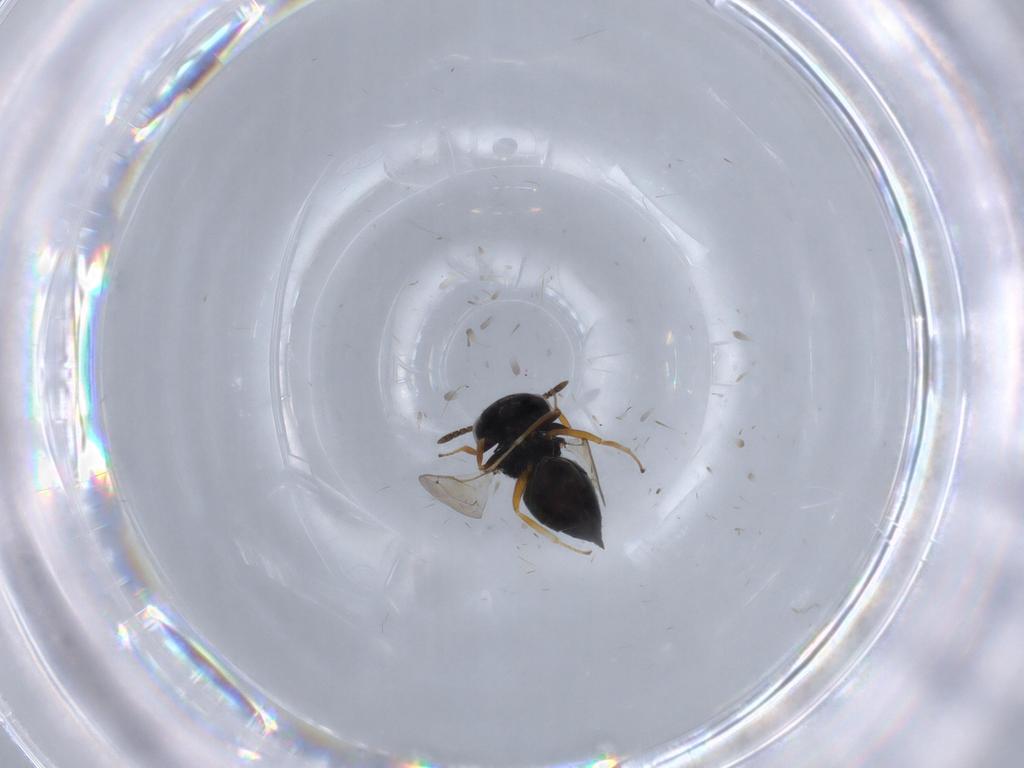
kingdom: Animalia
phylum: Arthropoda
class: Insecta
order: Hymenoptera
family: Pteromalidae
